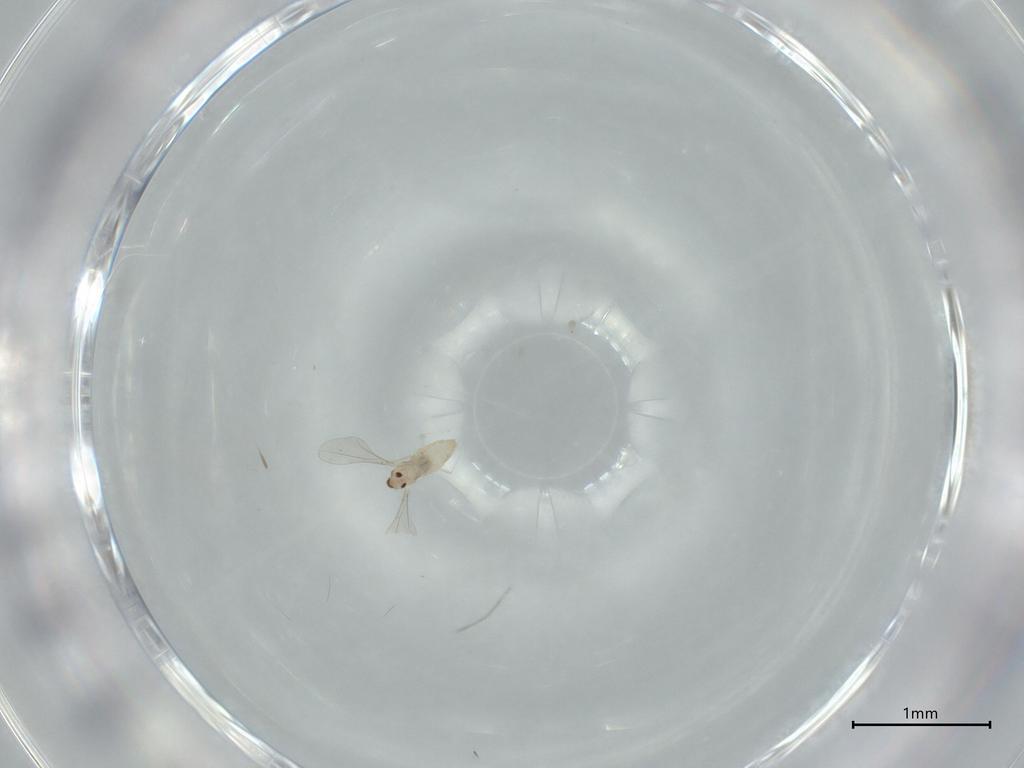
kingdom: Animalia
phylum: Arthropoda
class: Insecta
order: Diptera
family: Cecidomyiidae
